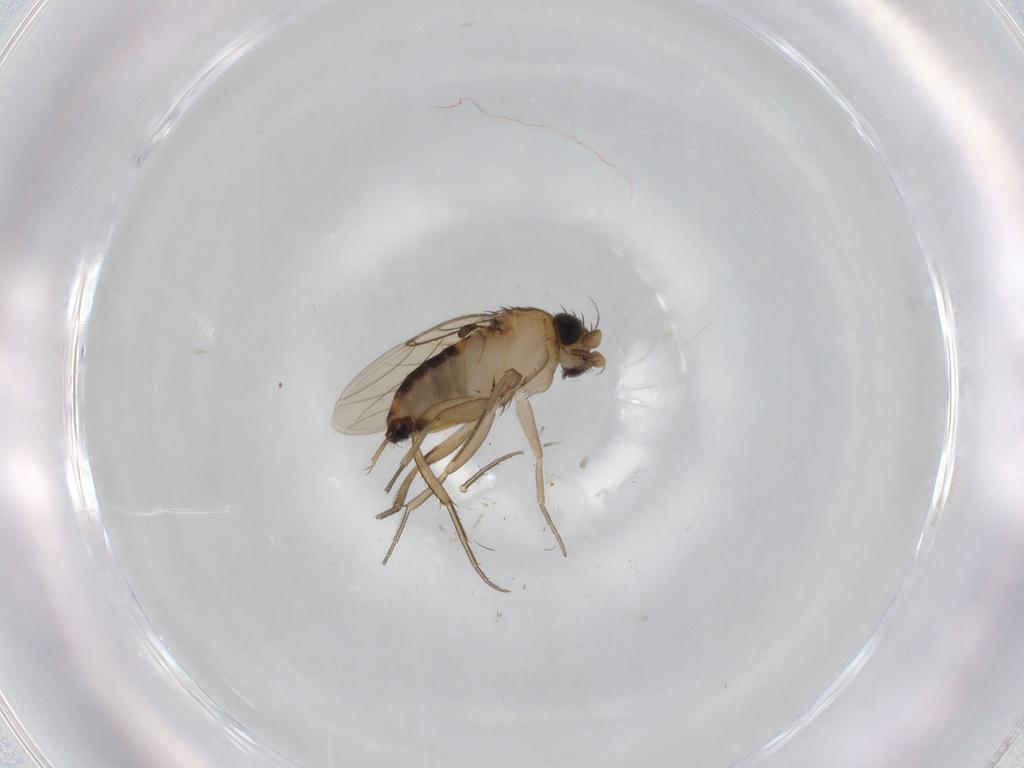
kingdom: Animalia
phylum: Arthropoda
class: Insecta
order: Diptera
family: Phoridae
